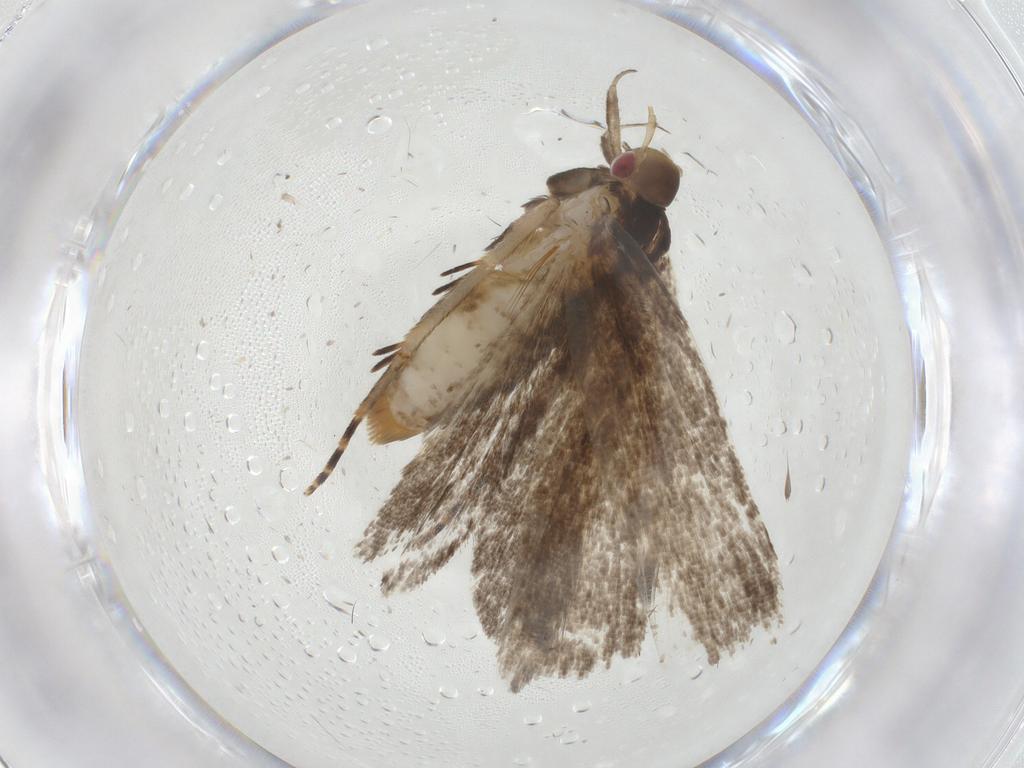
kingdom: Animalia
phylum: Arthropoda
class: Insecta
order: Lepidoptera
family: Gelechiidae
